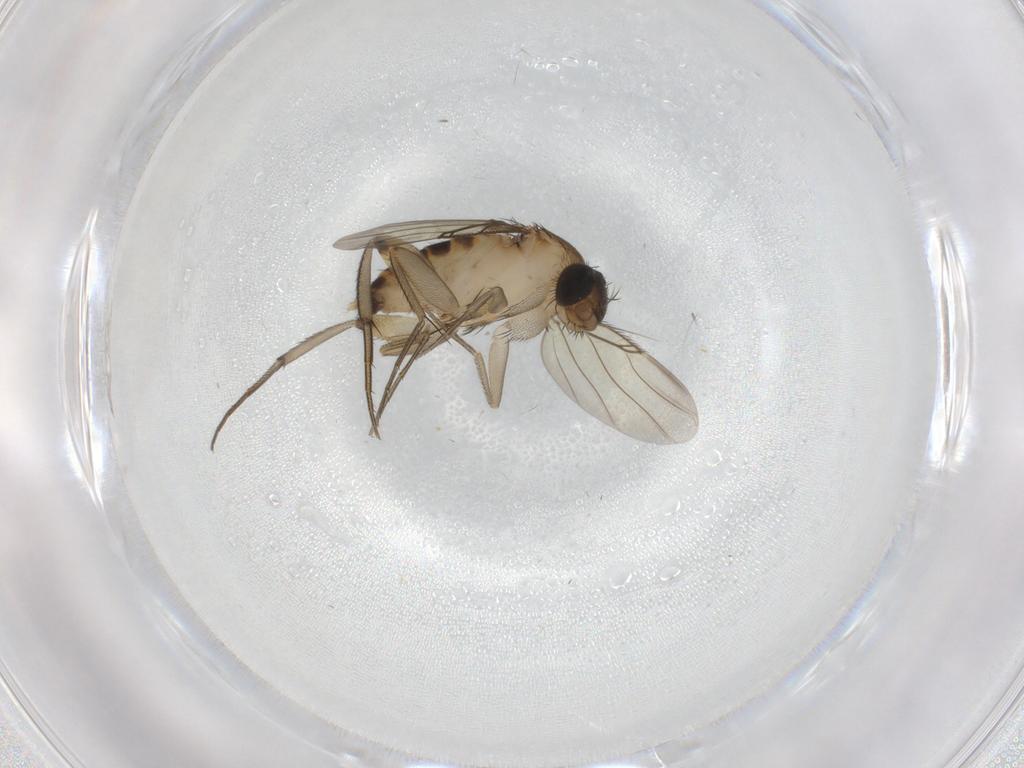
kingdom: Animalia
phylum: Arthropoda
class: Insecta
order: Diptera
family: Phoridae
